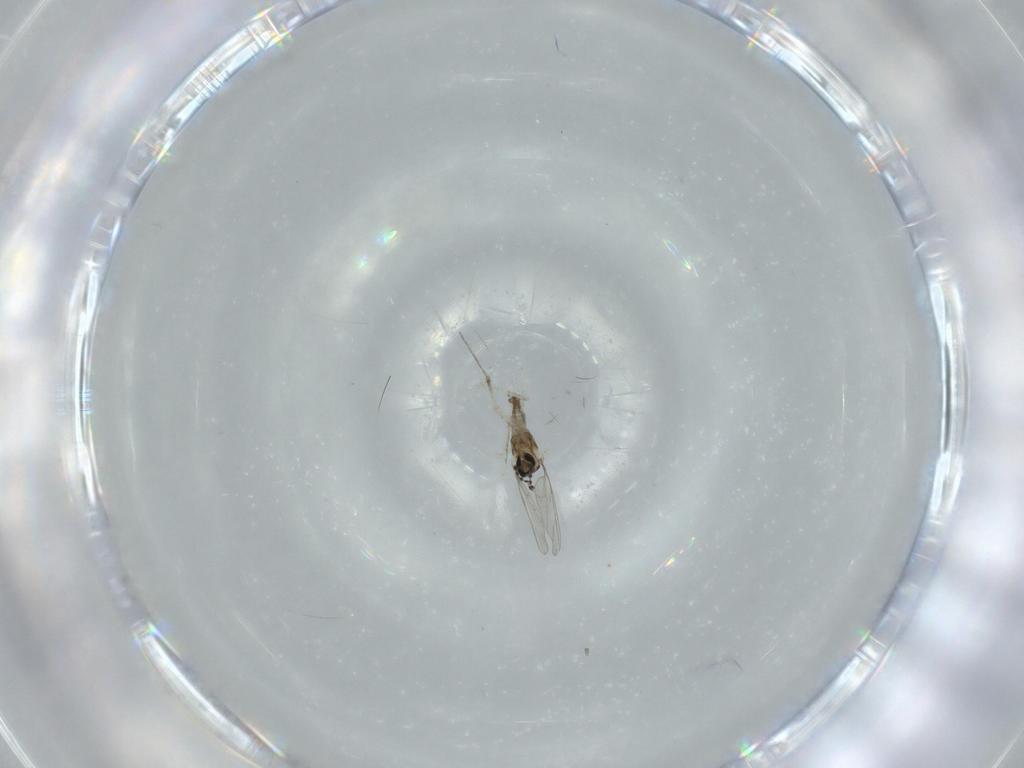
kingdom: Animalia
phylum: Arthropoda
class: Insecta
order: Diptera
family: Cecidomyiidae
